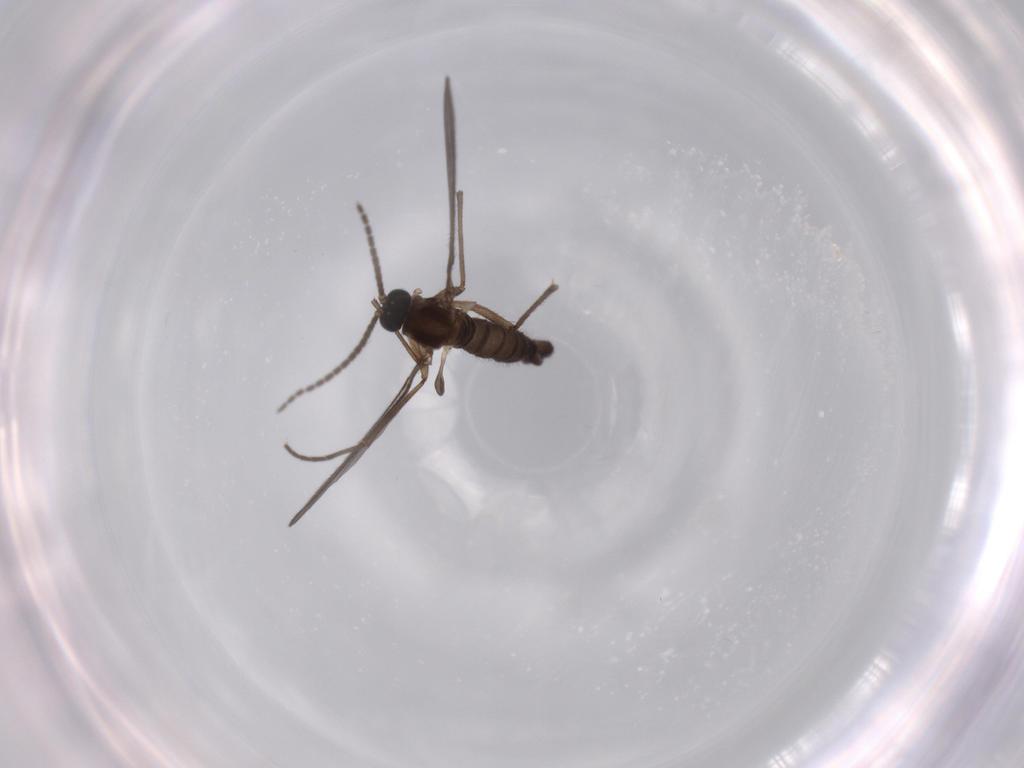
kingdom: Animalia
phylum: Arthropoda
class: Insecta
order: Diptera
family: Sciaridae
